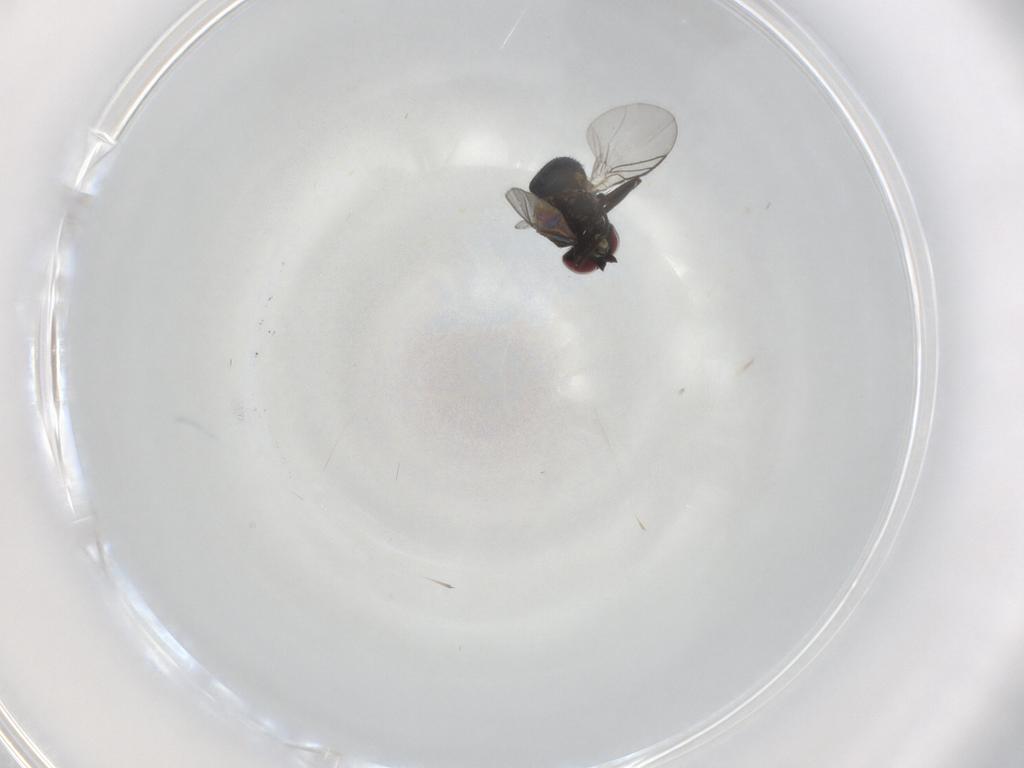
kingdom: Animalia
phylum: Arthropoda
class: Insecta
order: Diptera
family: Agromyzidae
